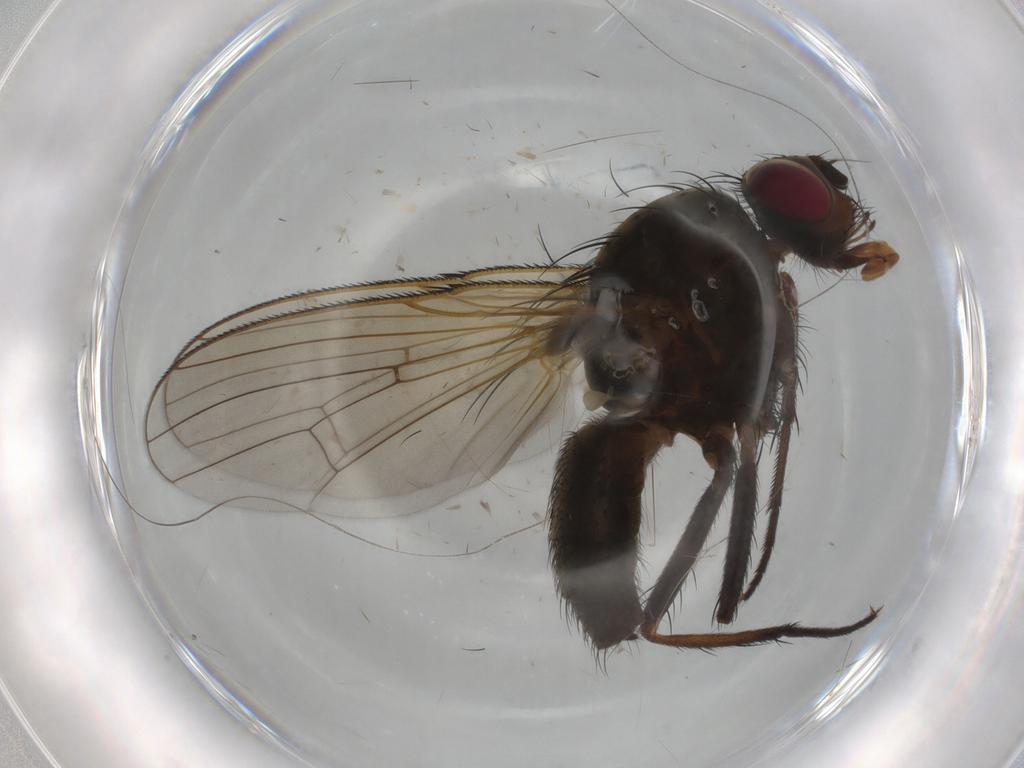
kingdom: Animalia
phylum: Arthropoda
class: Insecta
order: Diptera
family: Anthomyiidae
